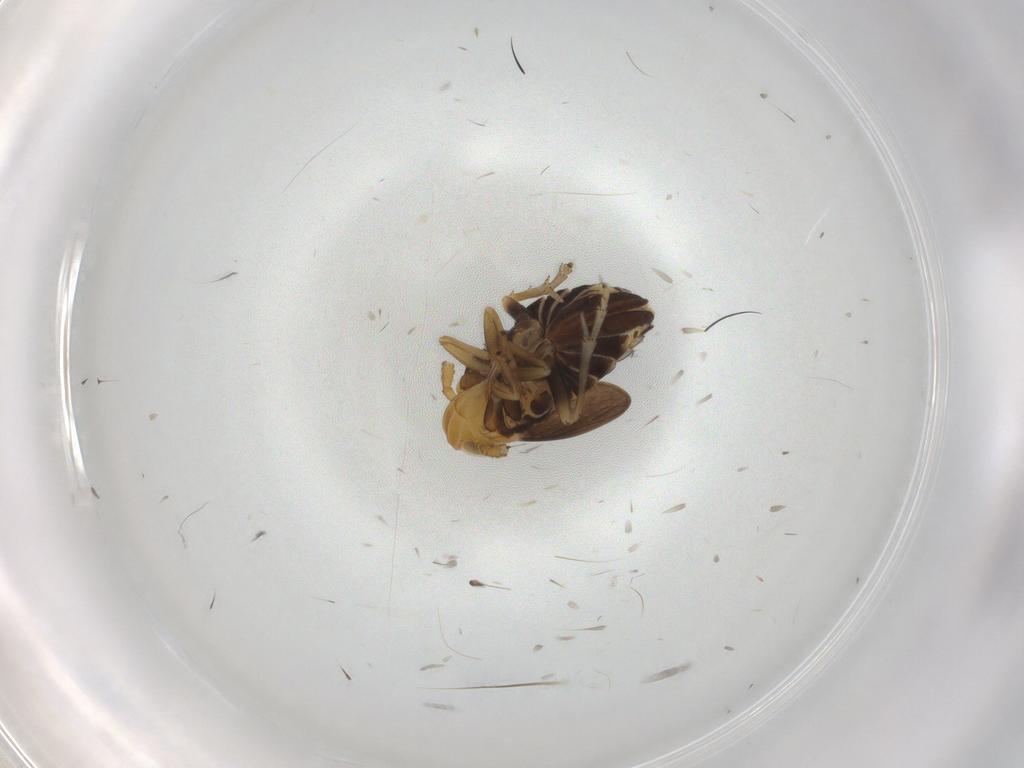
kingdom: Animalia
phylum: Arthropoda
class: Insecta
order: Hemiptera
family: Delphacidae
